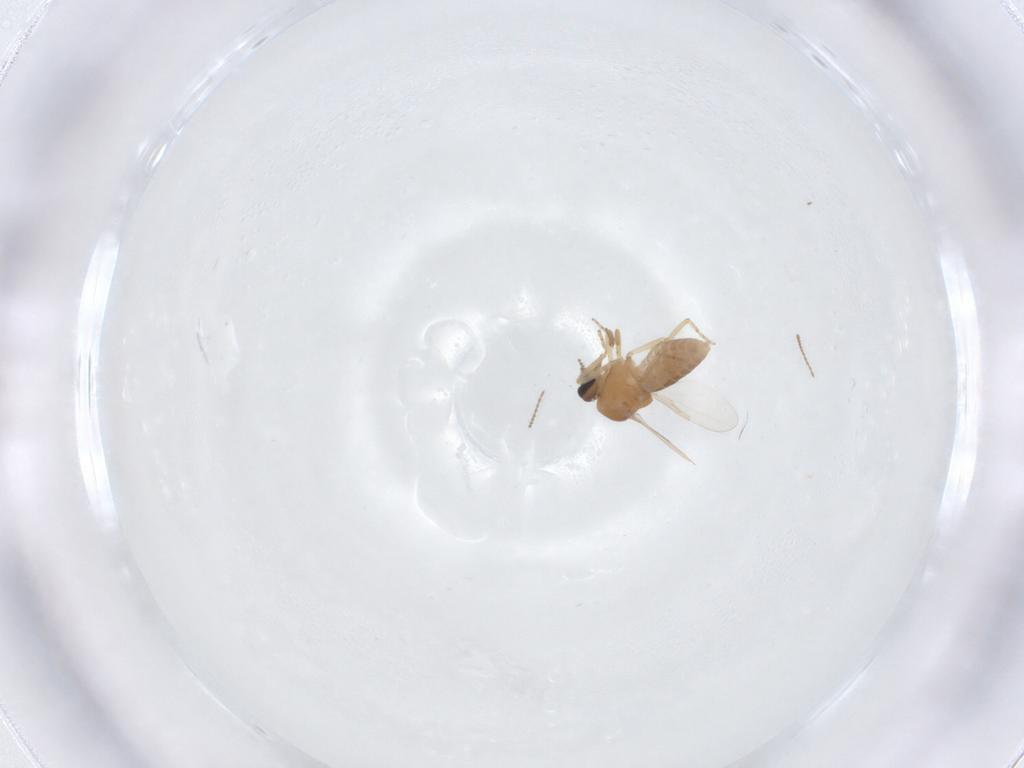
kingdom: Animalia
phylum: Arthropoda
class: Insecta
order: Diptera
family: Ceratopogonidae
